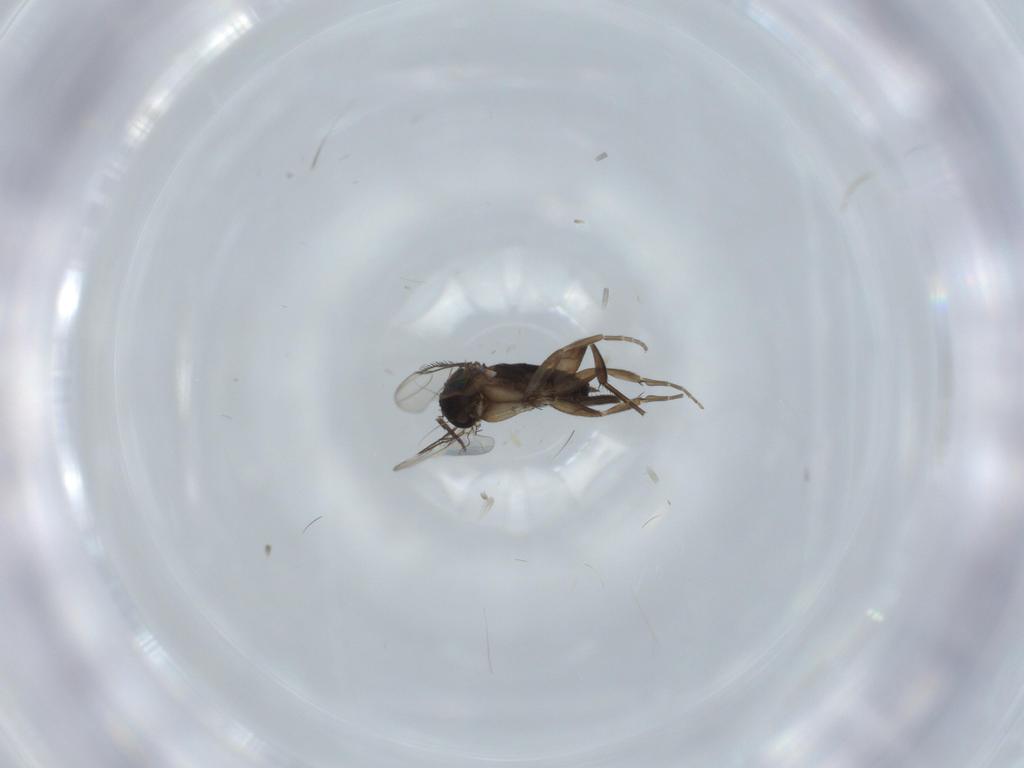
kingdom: Animalia
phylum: Arthropoda
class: Insecta
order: Diptera
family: Phoridae
